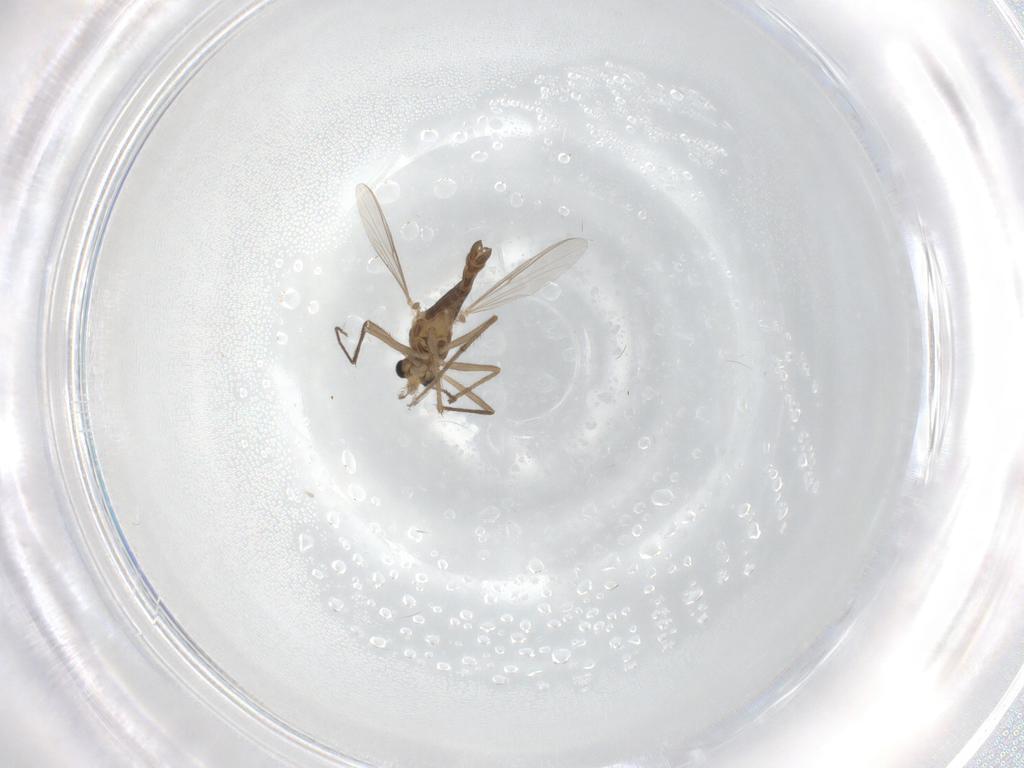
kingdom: Animalia
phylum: Arthropoda
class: Insecta
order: Diptera
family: Chironomidae
